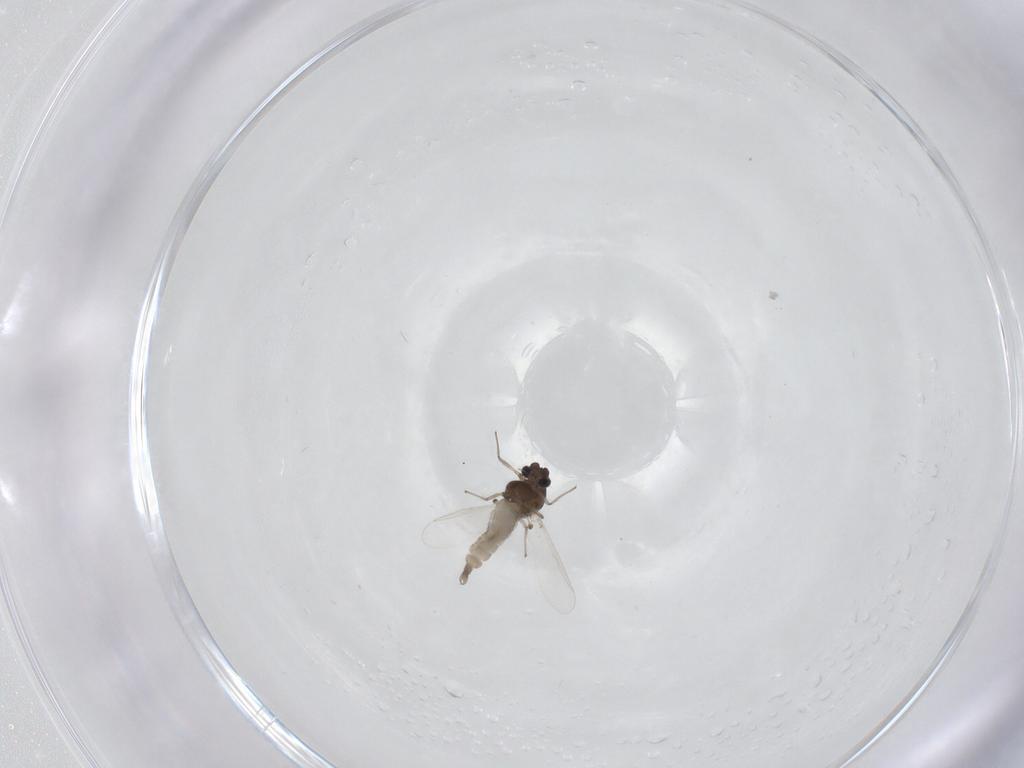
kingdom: Animalia
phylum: Arthropoda
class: Insecta
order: Diptera
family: Chironomidae
